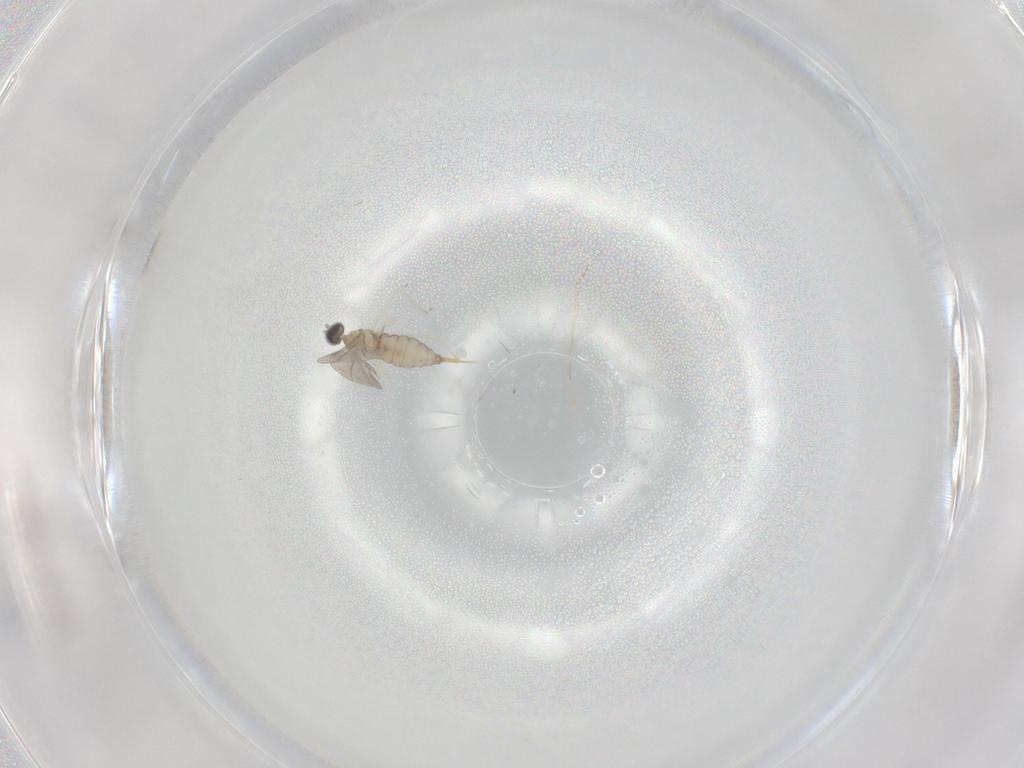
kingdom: Animalia
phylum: Arthropoda
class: Insecta
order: Diptera
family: Cecidomyiidae
